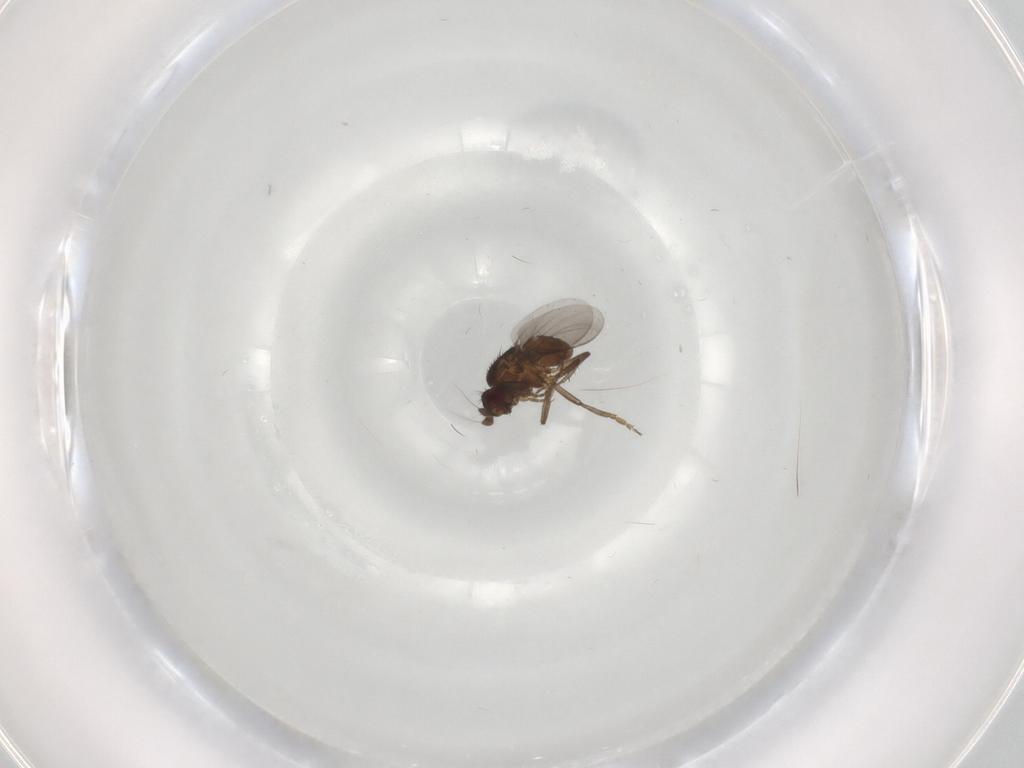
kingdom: Animalia
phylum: Arthropoda
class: Insecta
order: Diptera
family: Sphaeroceridae
